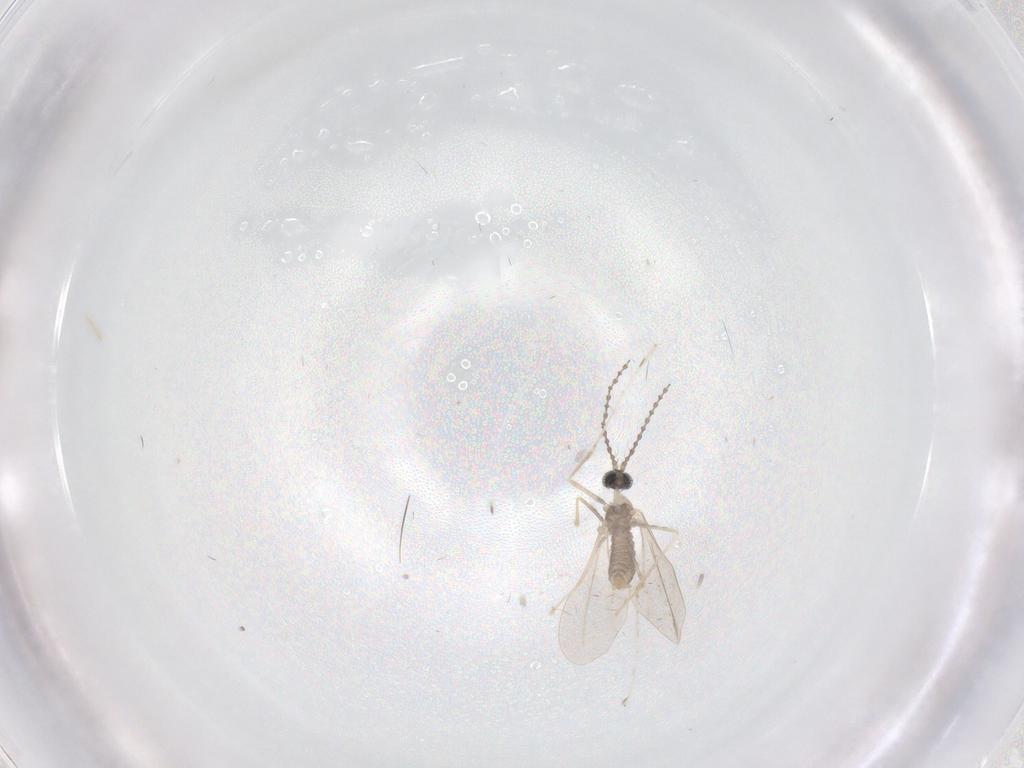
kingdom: Animalia
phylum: Arthropoda
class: Insecta
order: Diptera
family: Cecidomyiidae
